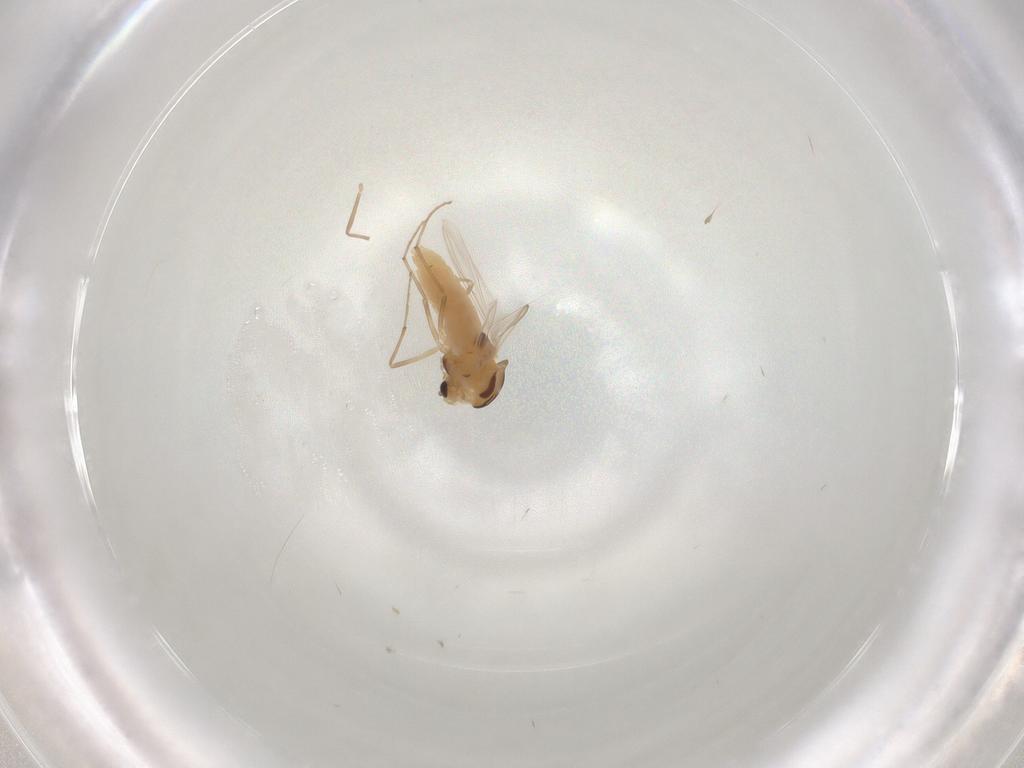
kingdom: Animalia
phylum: Arthropoda
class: Insecta
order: Diptera
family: Chironomidae
